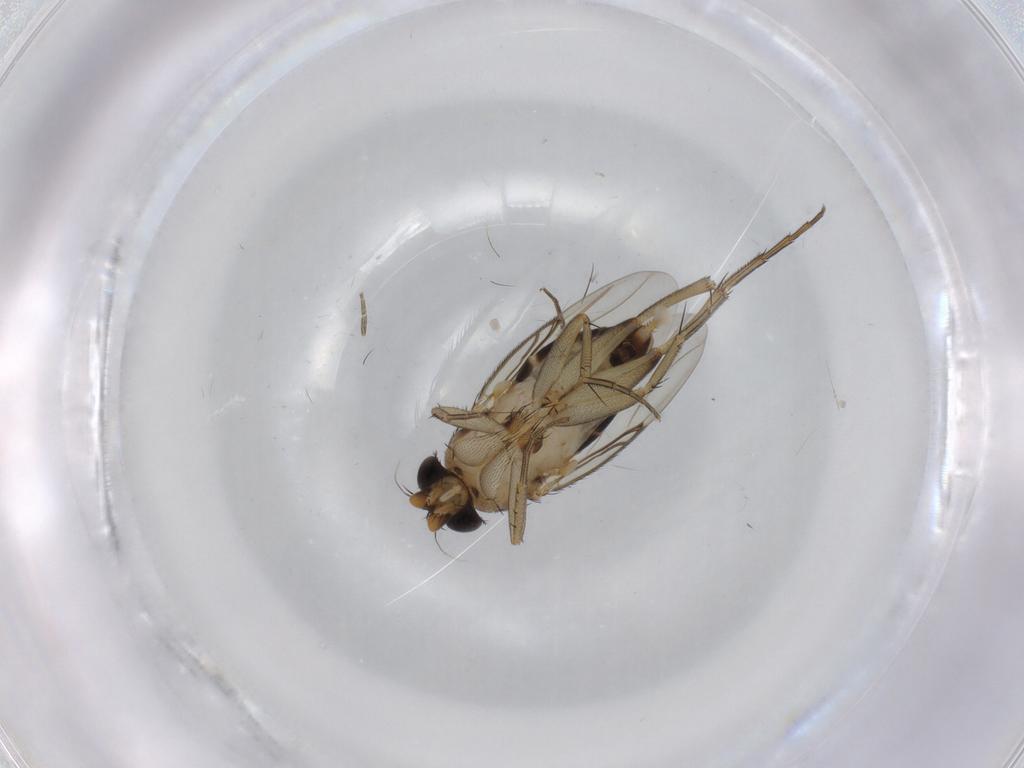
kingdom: Animalia
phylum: Arthropoda
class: Insecta
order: Diptera
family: Phoridae
